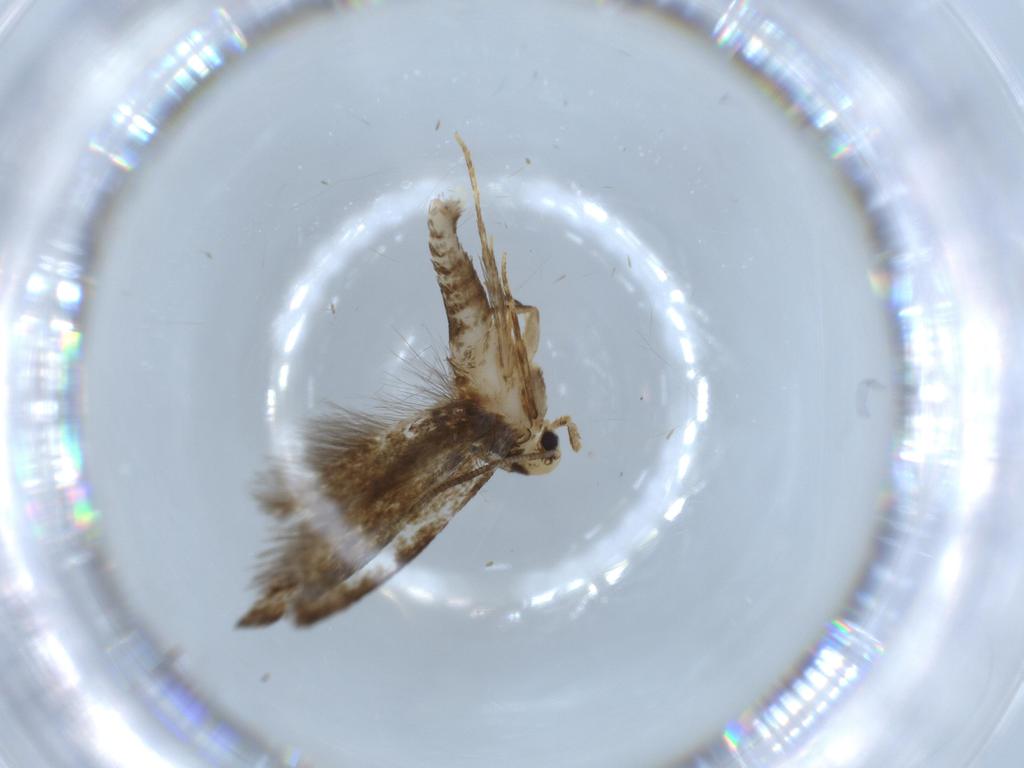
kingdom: Animalia
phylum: Arthropoda
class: Insecta
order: Lepidoptera
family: Tineidae
